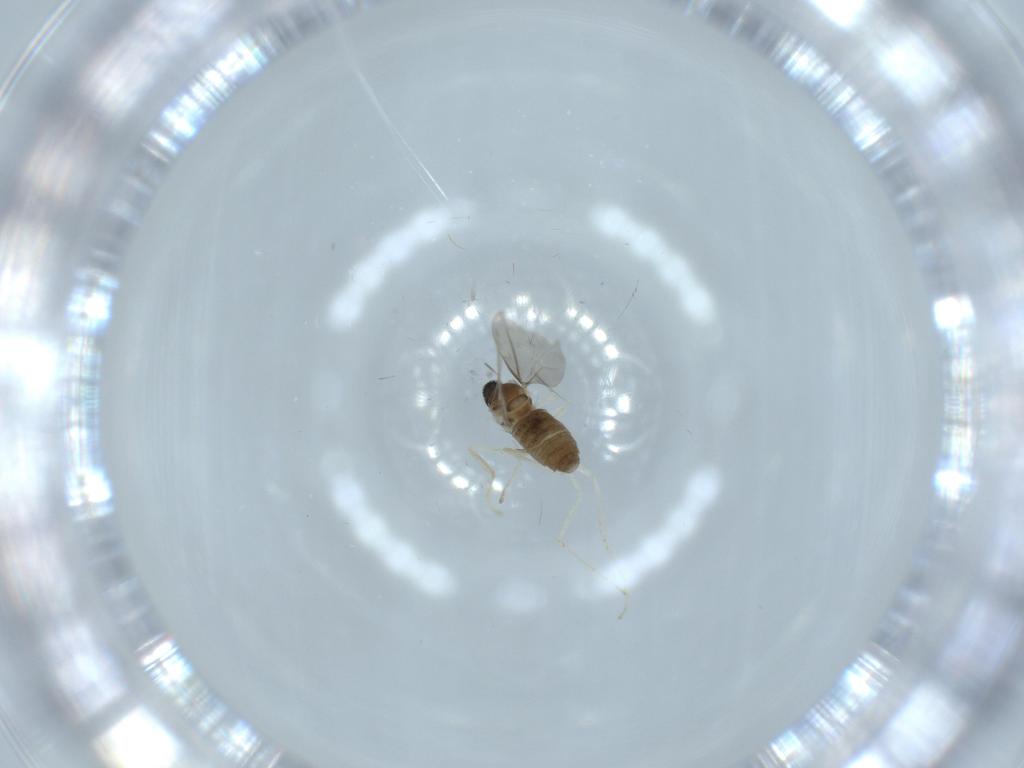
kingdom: Animalia
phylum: Arthropoda
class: Insecta
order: Diptera
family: Cecidomyiidae
